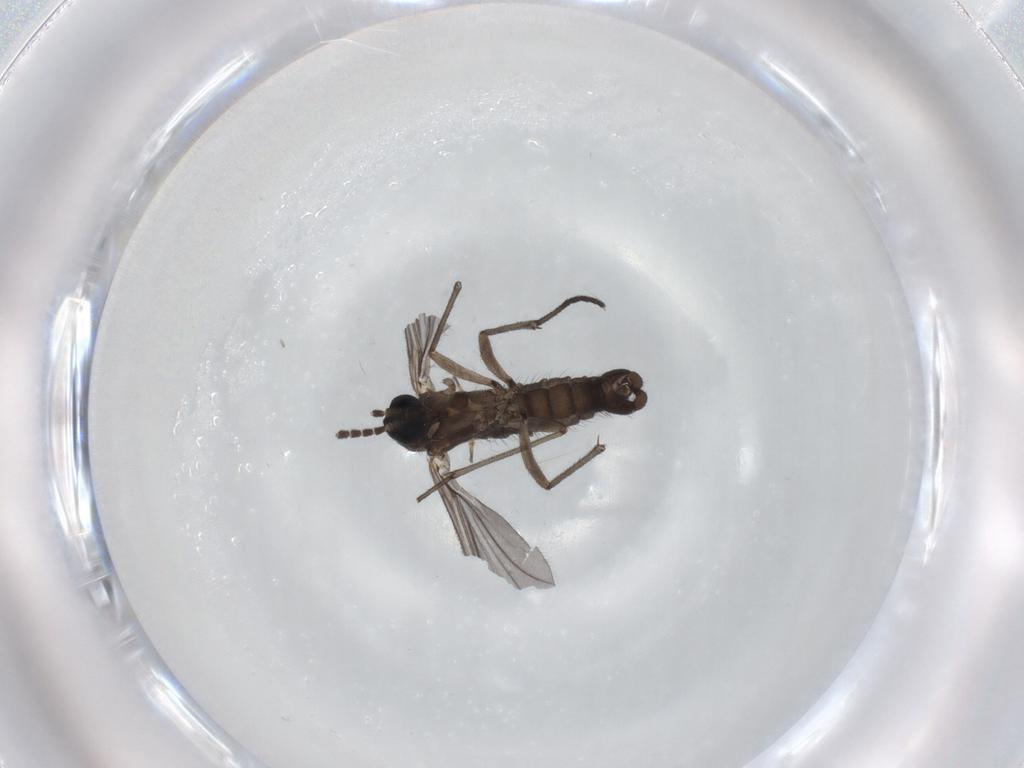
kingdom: Animalia
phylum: Arthropoda
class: Insecta
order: Diptera
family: Sciaridae
